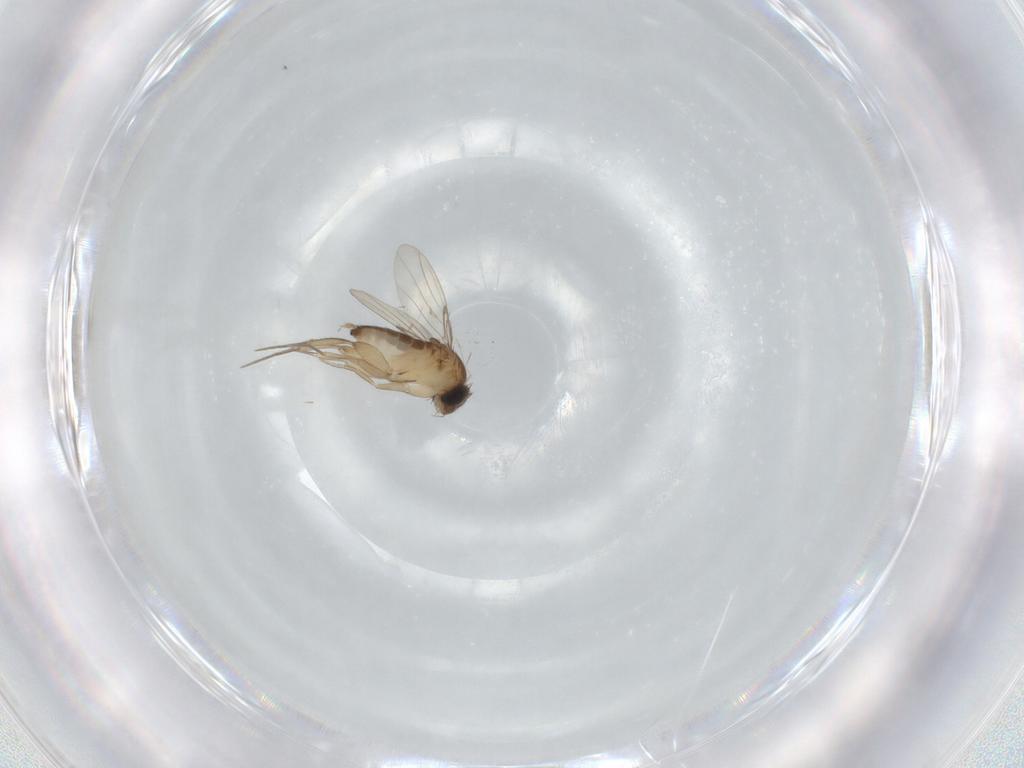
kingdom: Animalia
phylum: Arthropoda
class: Insecta
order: Diptera
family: Phoridae
